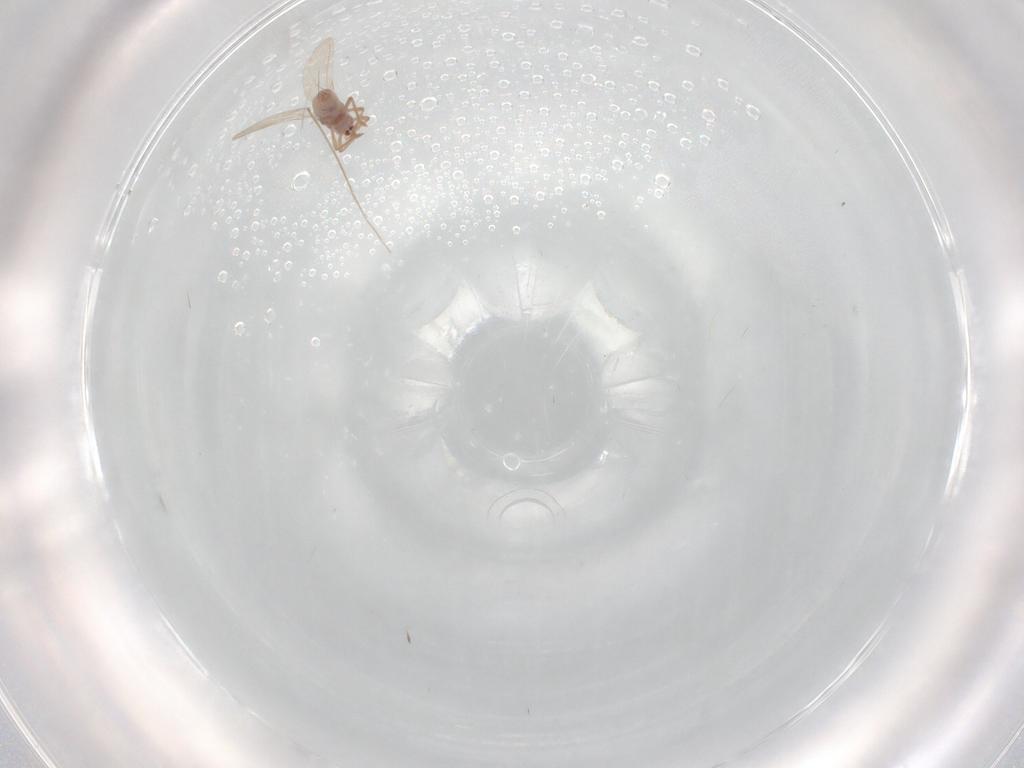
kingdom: Animalia
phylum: Arthropoda
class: Insecta
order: Diptera
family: Chironomidae
